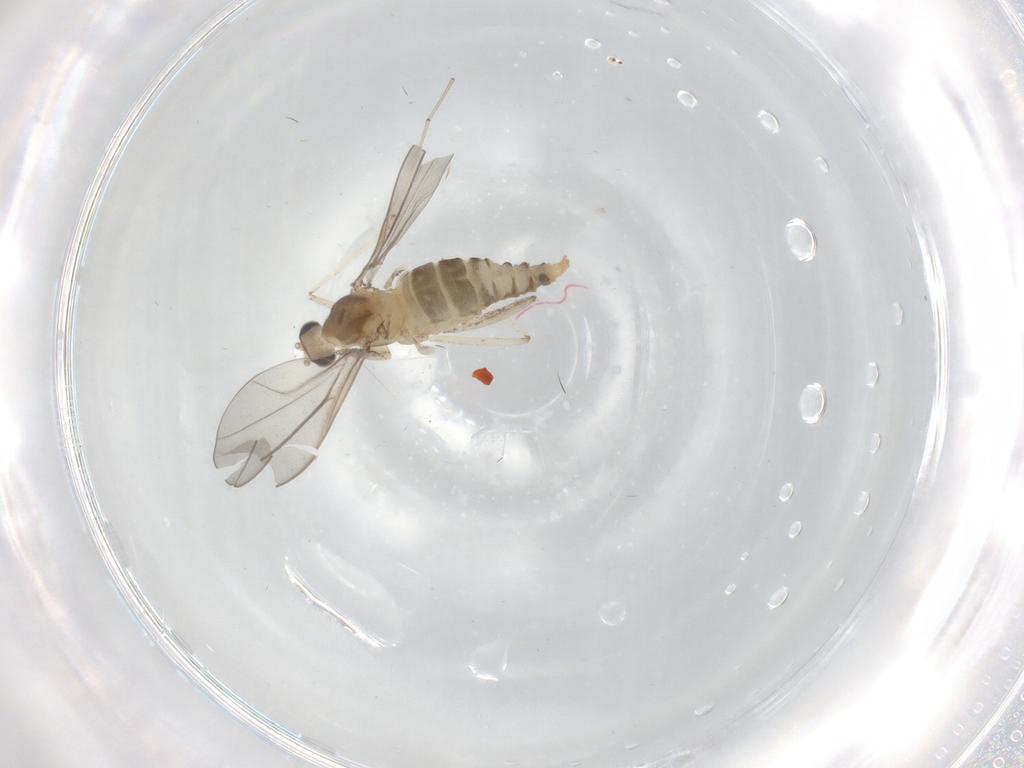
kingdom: Animalia
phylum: Arthropoda
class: Insecta
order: Diptera
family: Cecidomyiidae
